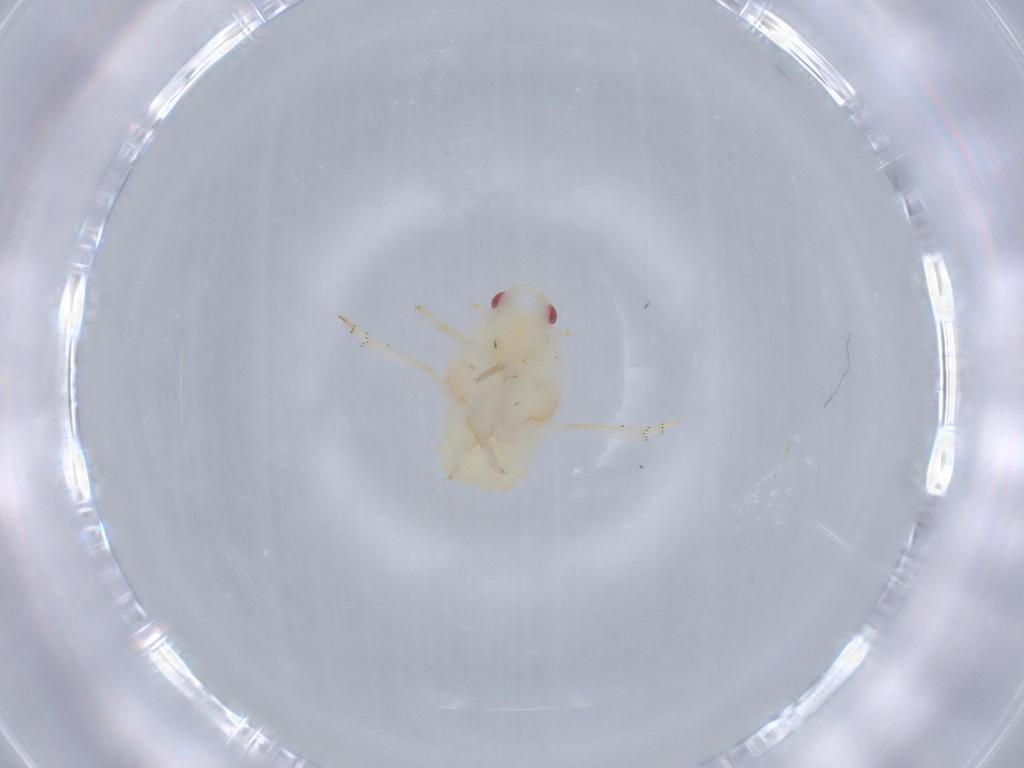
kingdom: Animalia
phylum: Arthropoda
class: Insecta
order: Hemiptera
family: Flatidae
